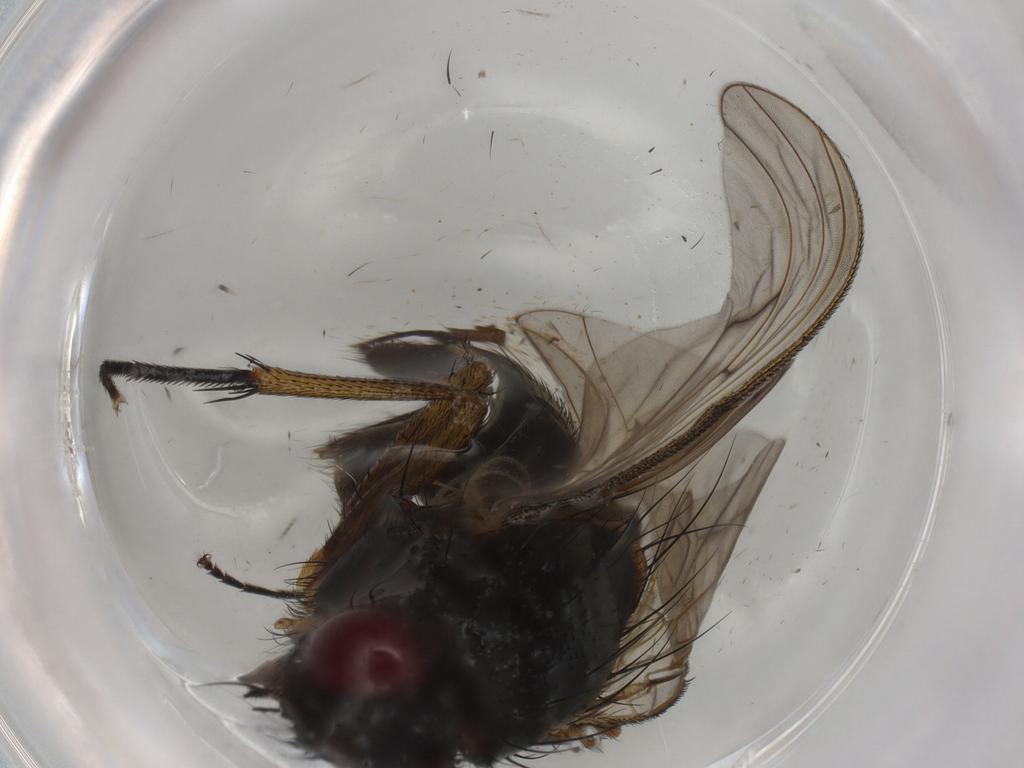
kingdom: Animalia
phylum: Arthropoda
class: Insecta
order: Diptera
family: Muscidae
